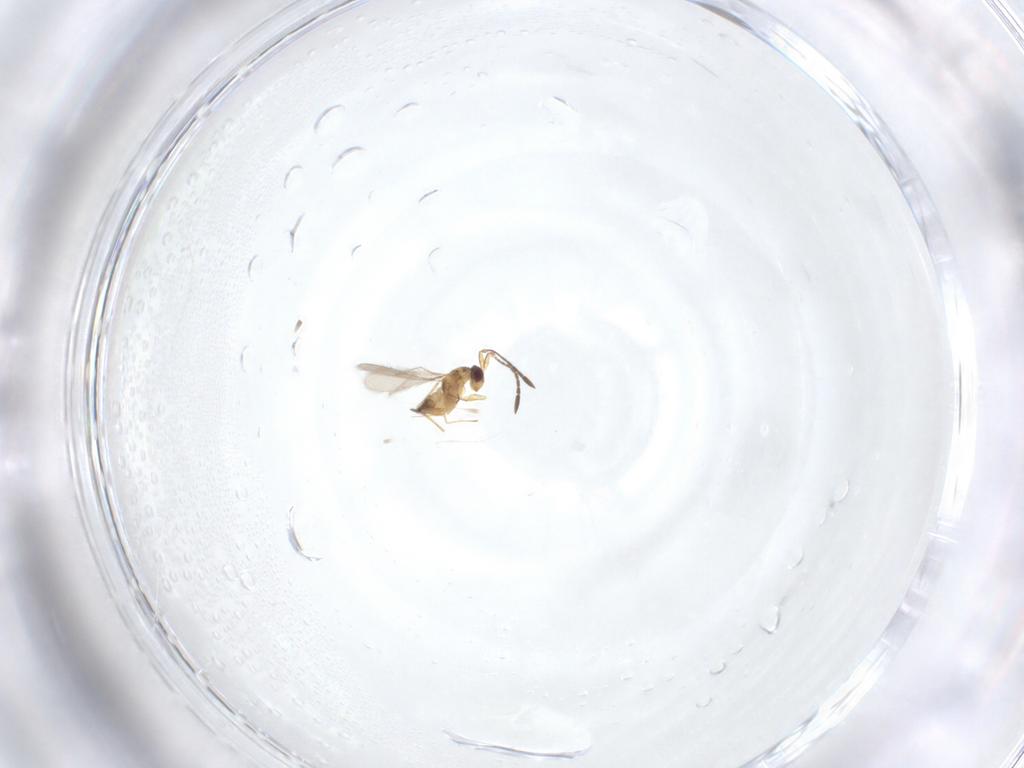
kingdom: Animalia
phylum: Arthropoda
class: Insecta
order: Hymenoptera
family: Mymaridae
